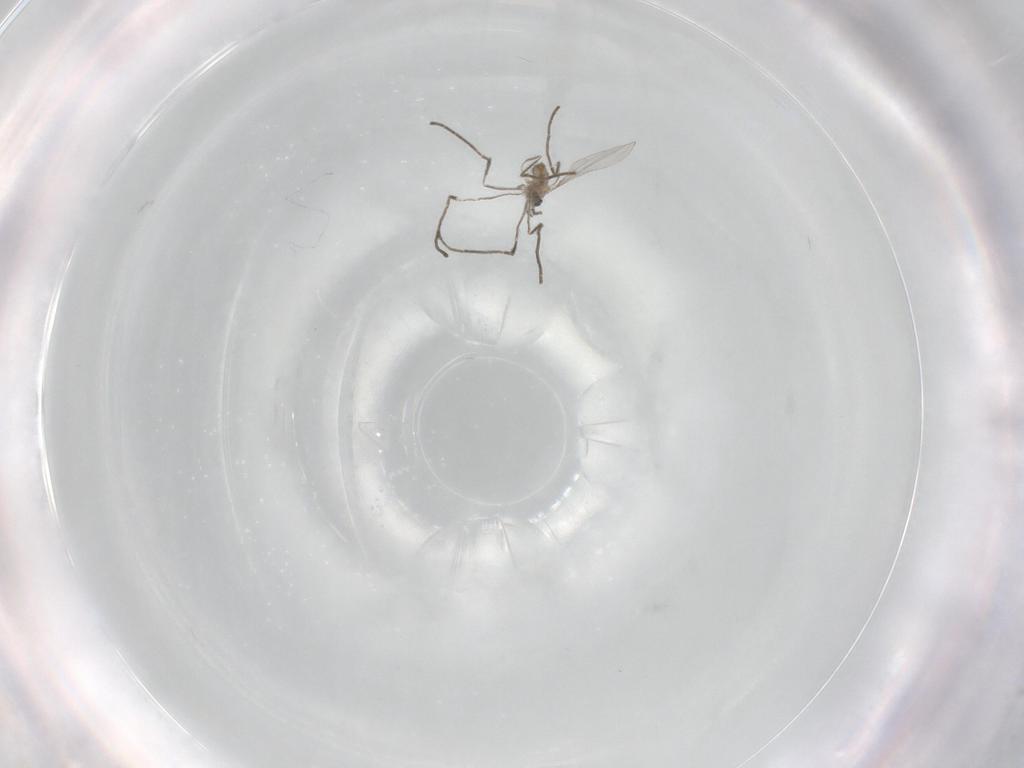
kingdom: Animalia
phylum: Arthropoda
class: Insecta
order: Diptera
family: Cecidomyiidae
